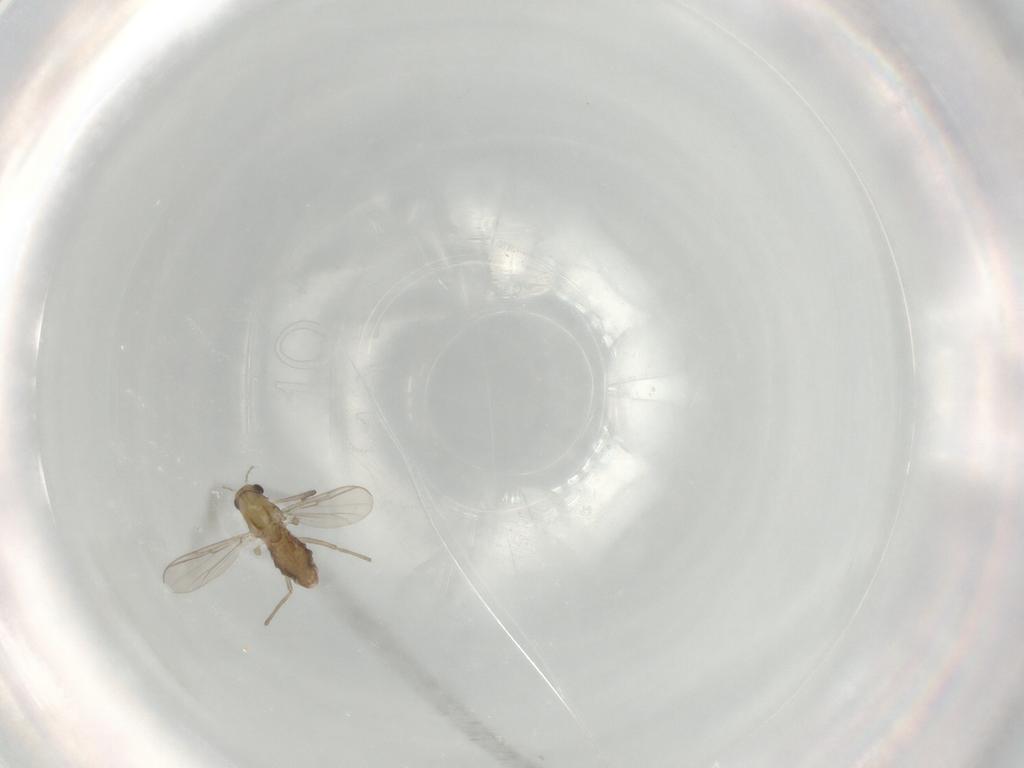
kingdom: Animalia
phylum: Arthropoda
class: Insecta
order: Diptera
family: Chironomidae
